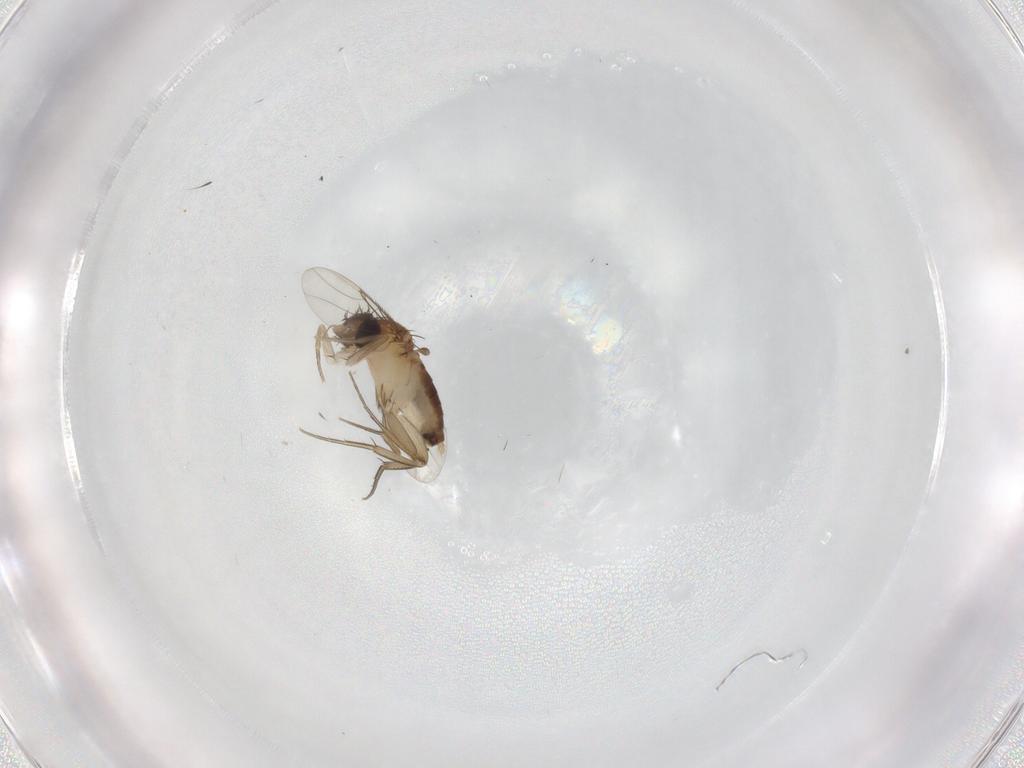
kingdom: Animalia
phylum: Arthropoda
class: Insecta
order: Diptera
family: Phoridae
